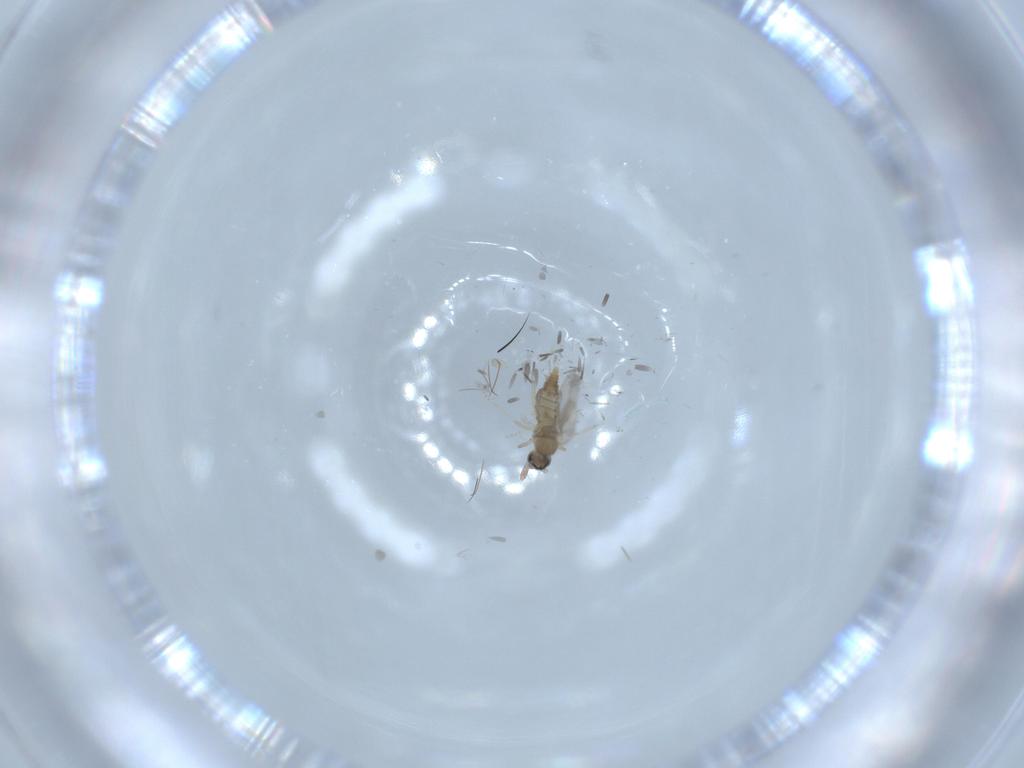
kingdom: Animalia
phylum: Arthropoda
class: Insecta
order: Diptera
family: Cecidomyiidae
